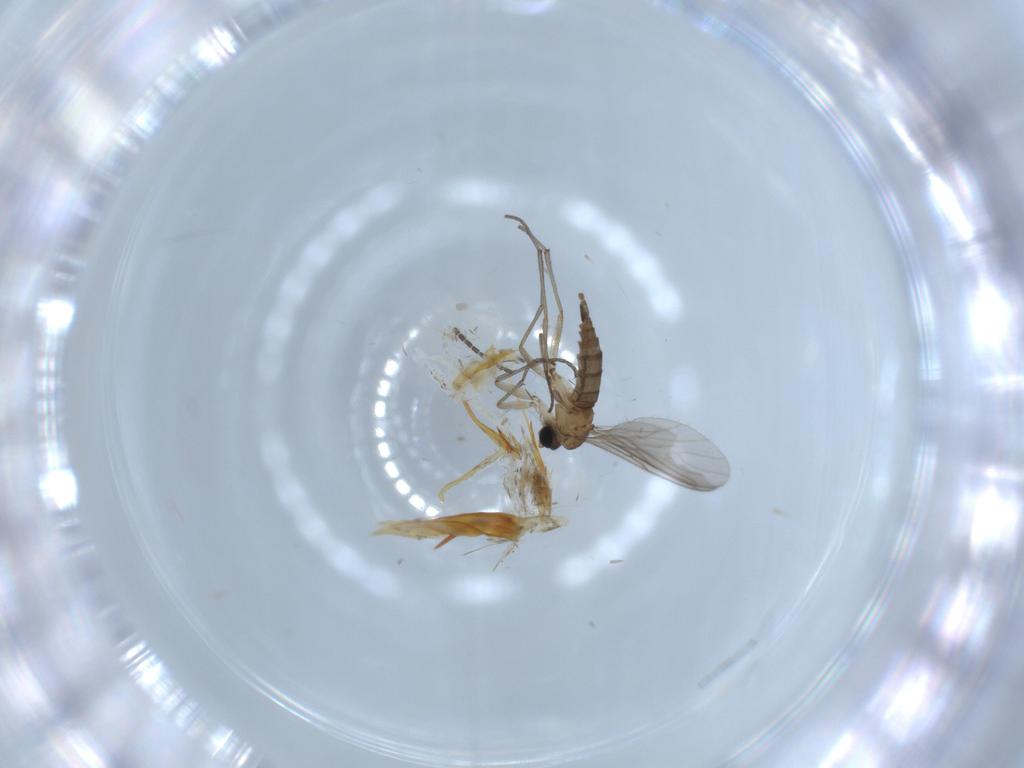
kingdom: Animalia
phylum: Arthropoda
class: Insecta
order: Diptera
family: Sciaridae
